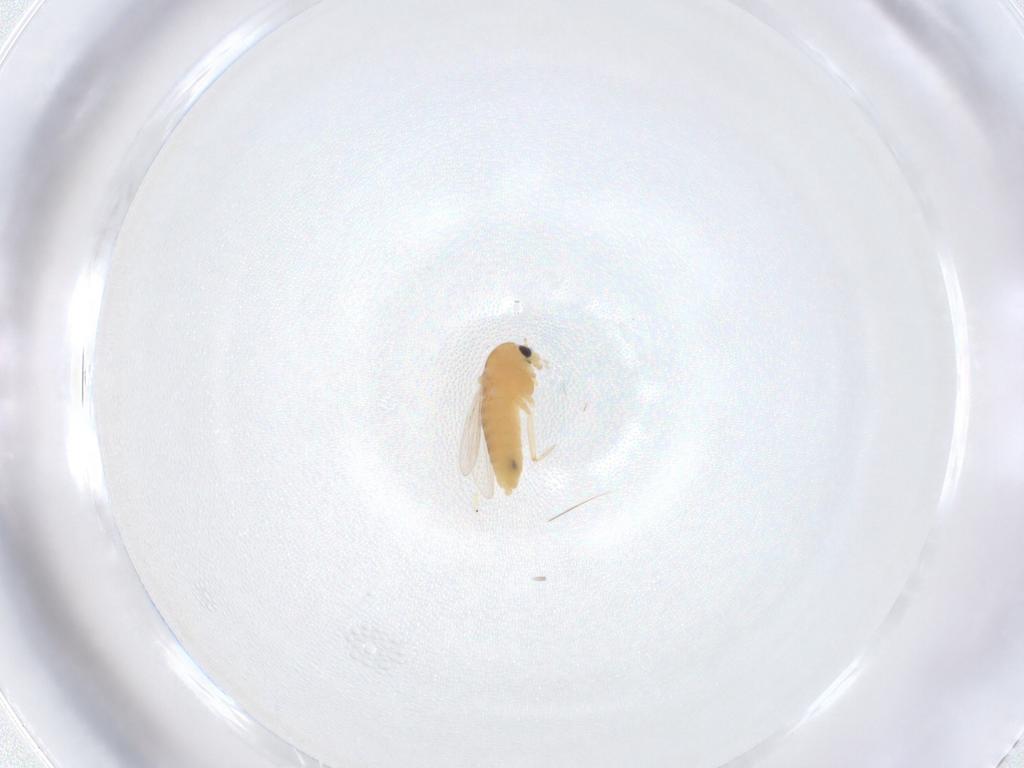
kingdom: Animalia
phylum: Arthropoda
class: Insecta
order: Diptera
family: Chironomidae
